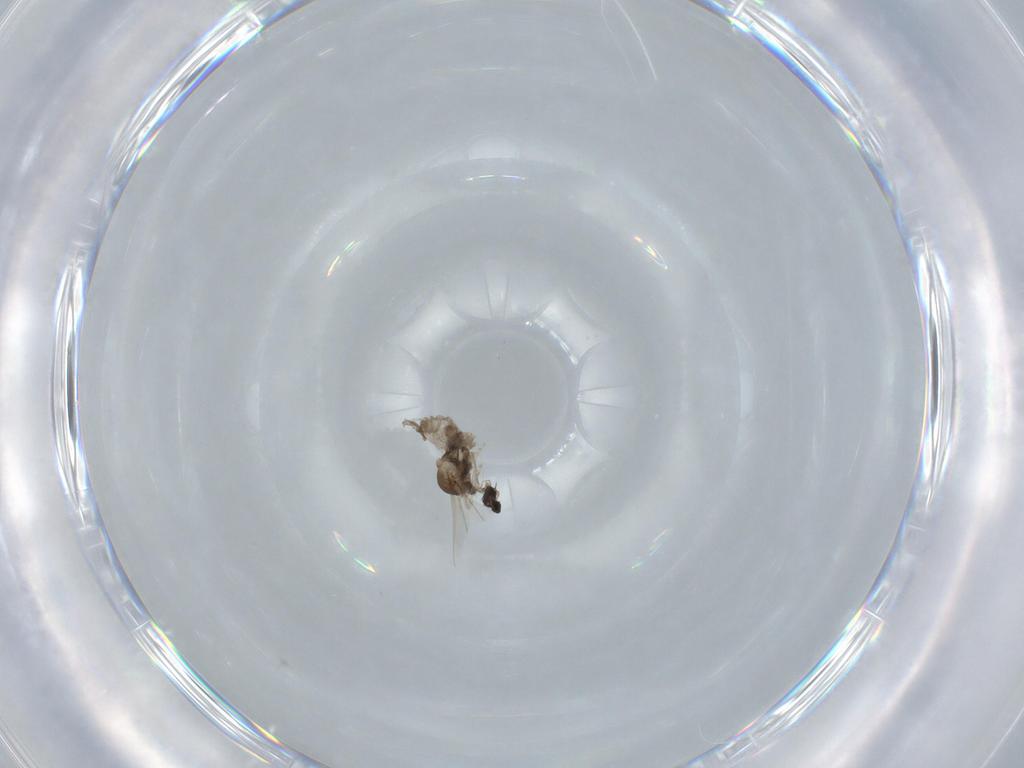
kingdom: Animalia
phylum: Arthropoda
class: Insecta
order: Diptera
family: Cecidomyiidae
